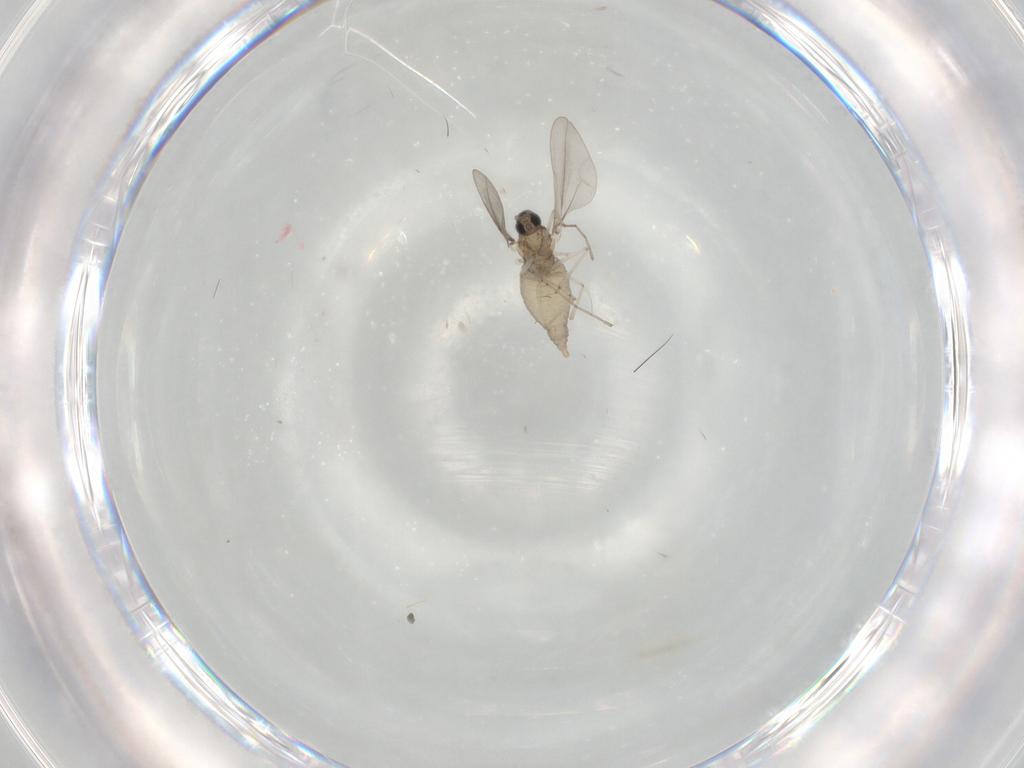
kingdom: Animalia
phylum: Arthropoda
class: Insecta
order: Diptera
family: Cecidomyiidae
